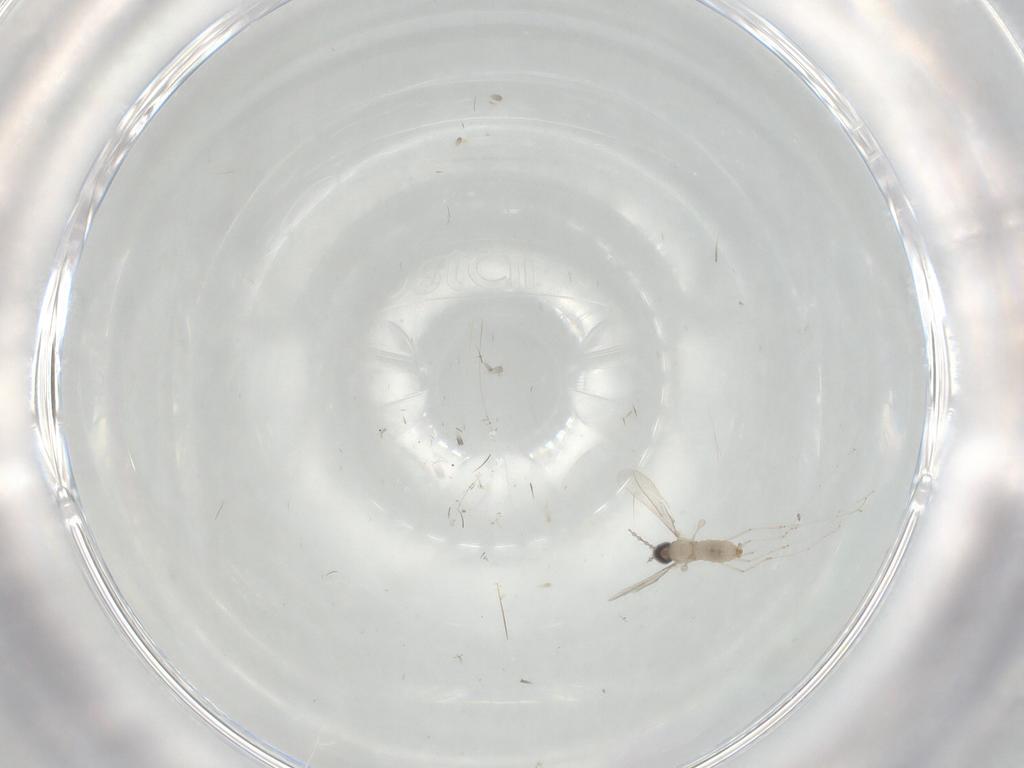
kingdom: Animalia
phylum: Arthropoda
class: Insecta
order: Diptera
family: Cecidomyiidae
